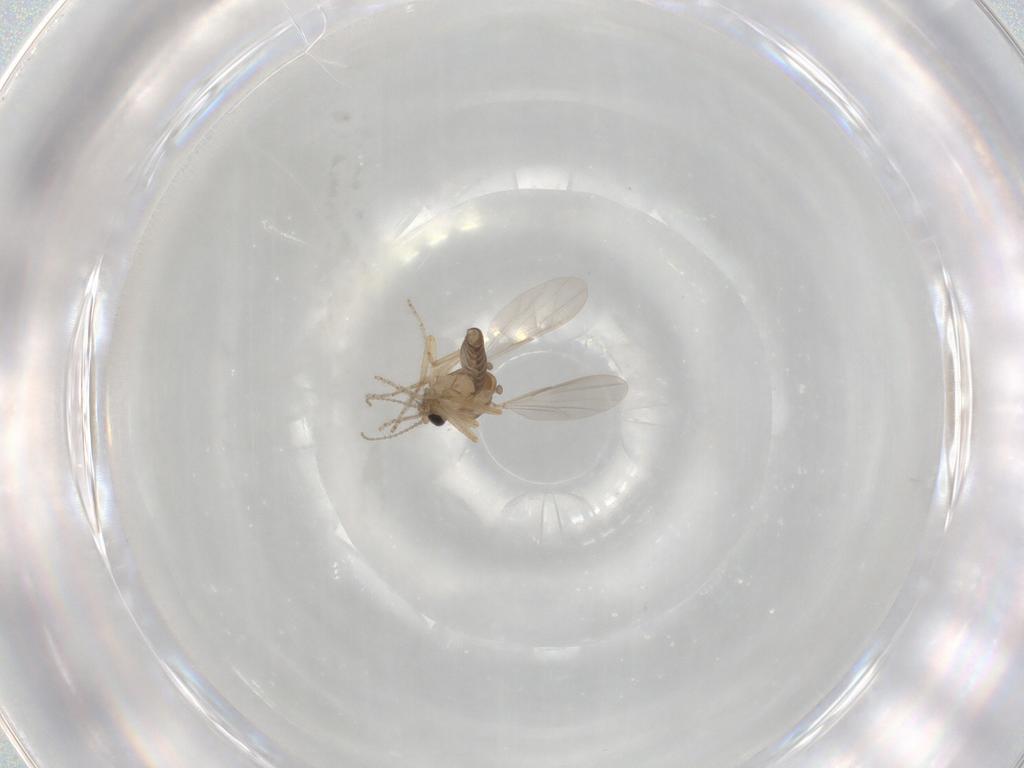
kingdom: Animalia
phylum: Arthropoda
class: Insecta
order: Diptera
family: Ceratopogonidae
